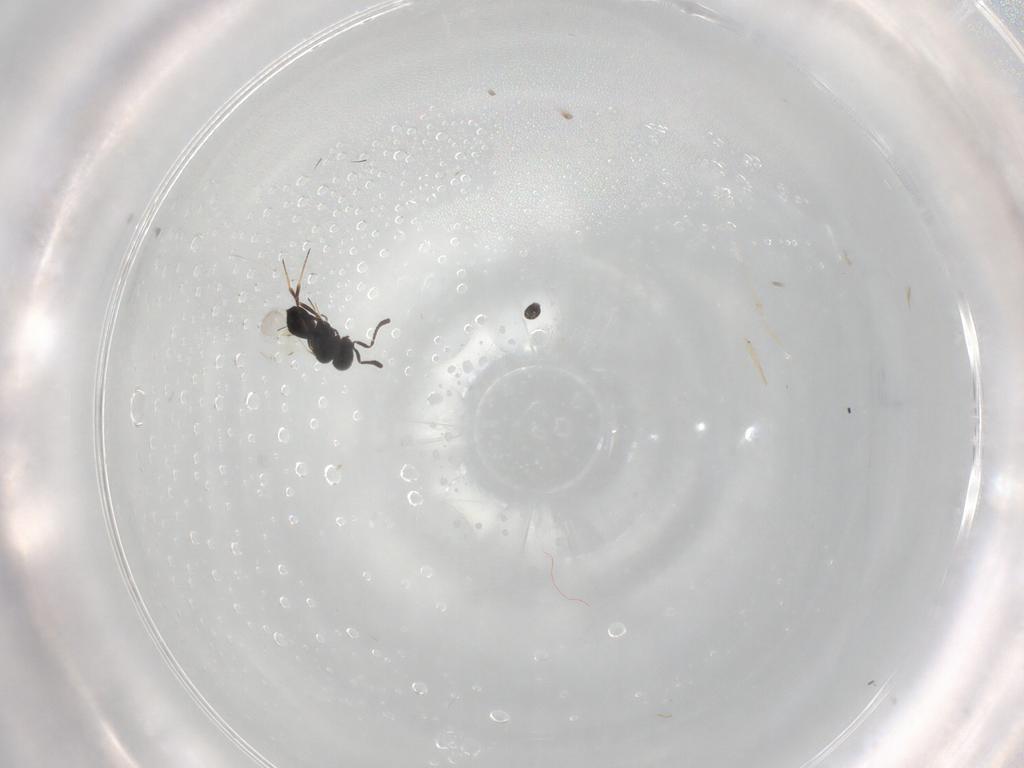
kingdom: Animalia
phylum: Arthropoda
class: Insecta
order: Hymenoptera
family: Scelionidae
